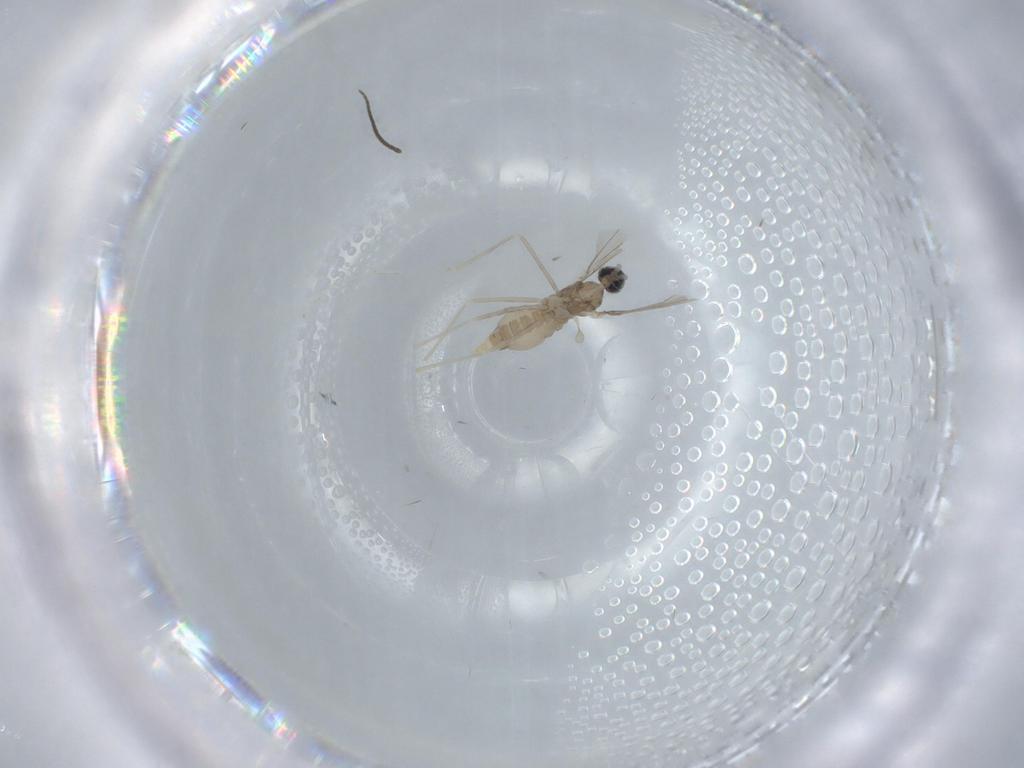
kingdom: Animalia
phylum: Arthropoda
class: Insecta
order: Diptera
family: Cecidomyiidae
